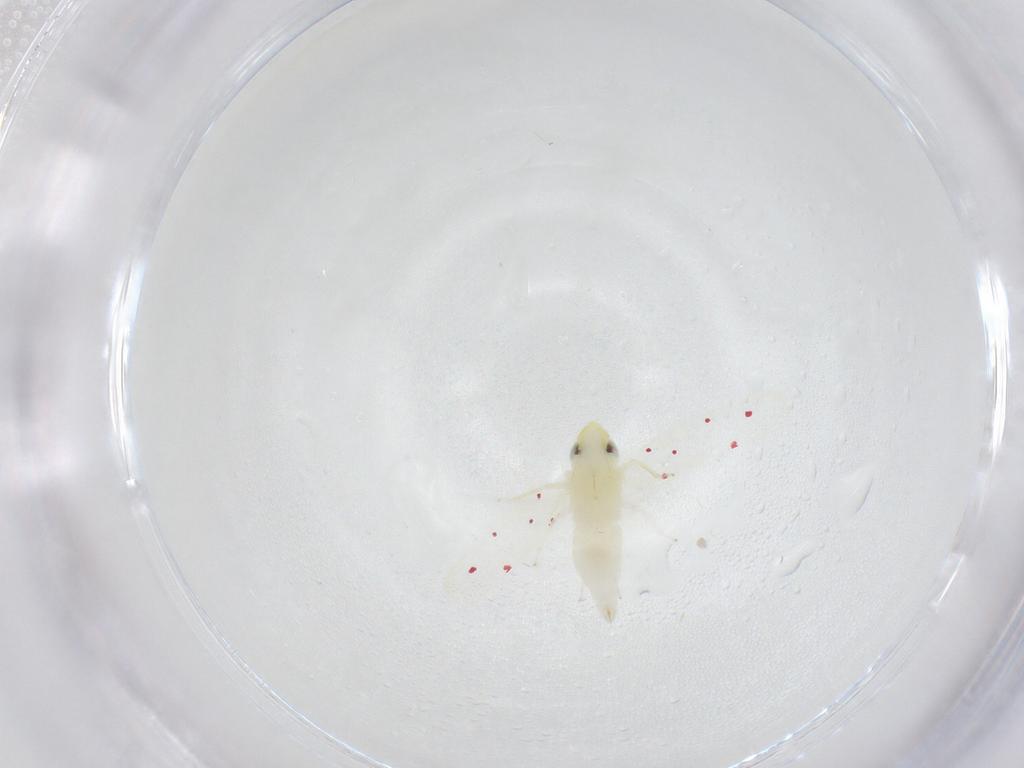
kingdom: Animalia
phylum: Arthropoda
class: Insecta
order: Hemiptera
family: Cicadellidae
